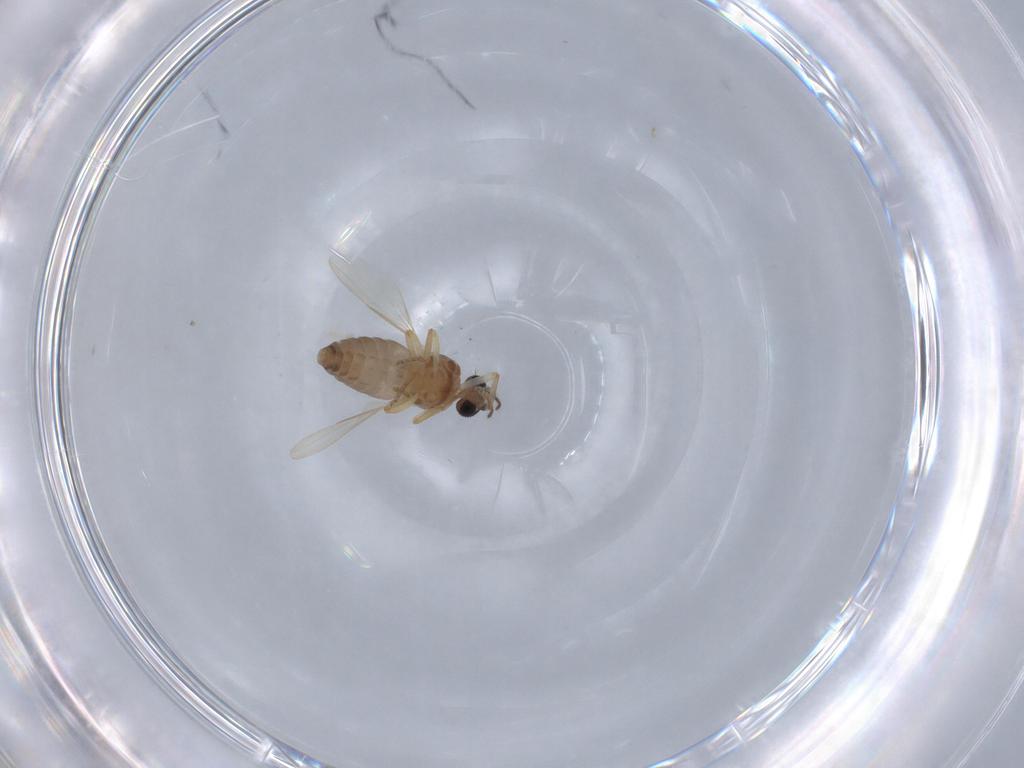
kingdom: Animalia
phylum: Arthropoda
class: Insecta
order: Diptera
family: Ceratopogonidae
